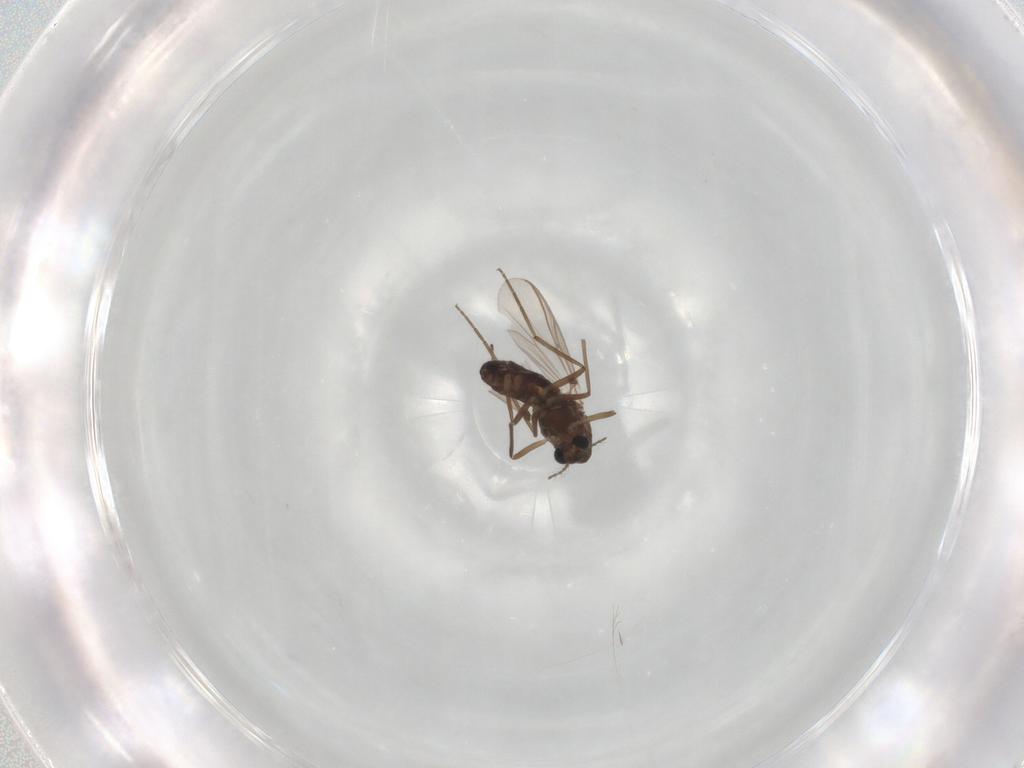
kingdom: Animalia
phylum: Arthropoda
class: Insecta
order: Diptera
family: Chironomidae
